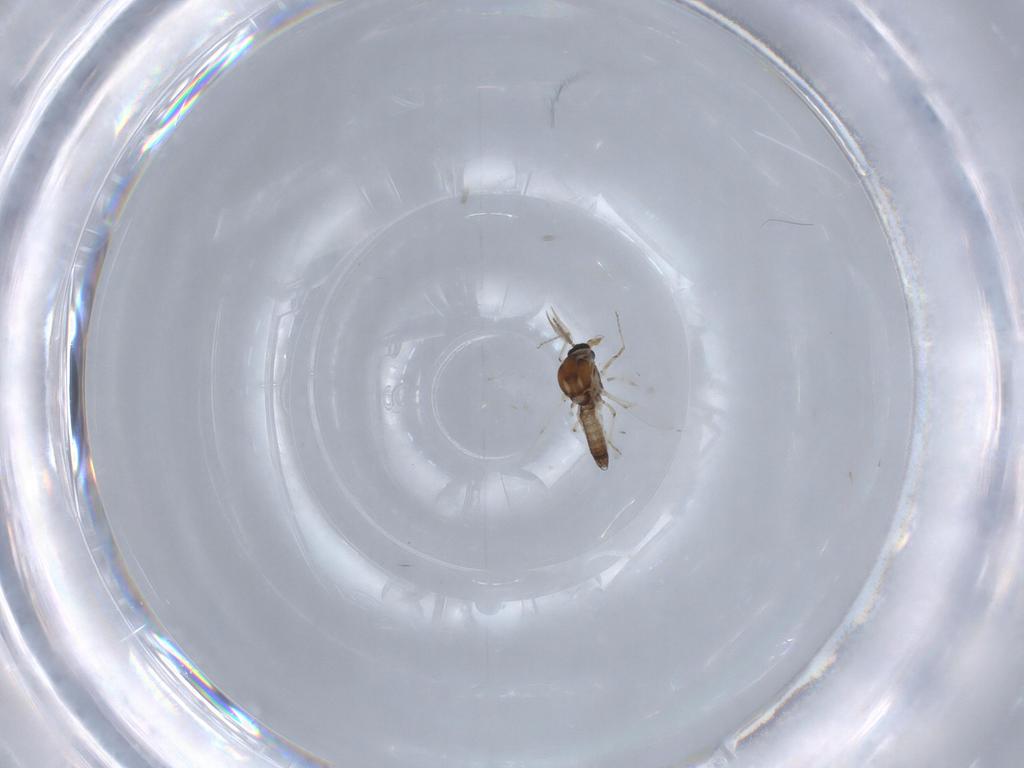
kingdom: Animalia
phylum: Arthropoda
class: Insecta
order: Diptera
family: Ceratopogonidae
